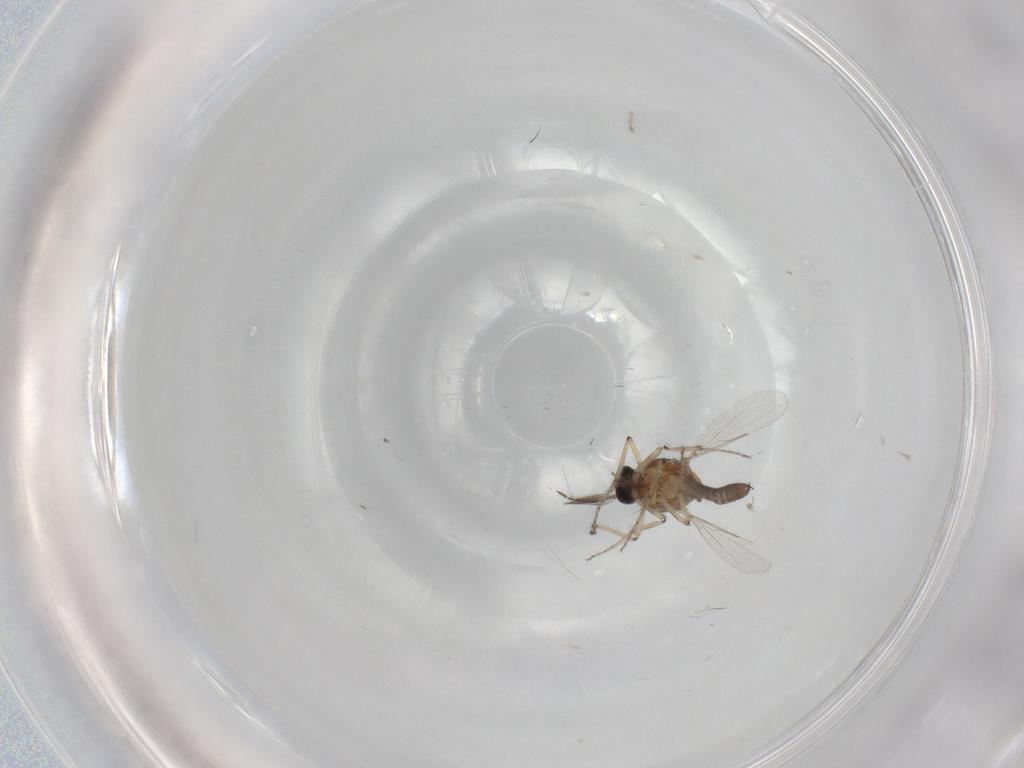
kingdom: Animalia
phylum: Arthropoda
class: Insecta
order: Diptera
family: Ceratopogonidae
